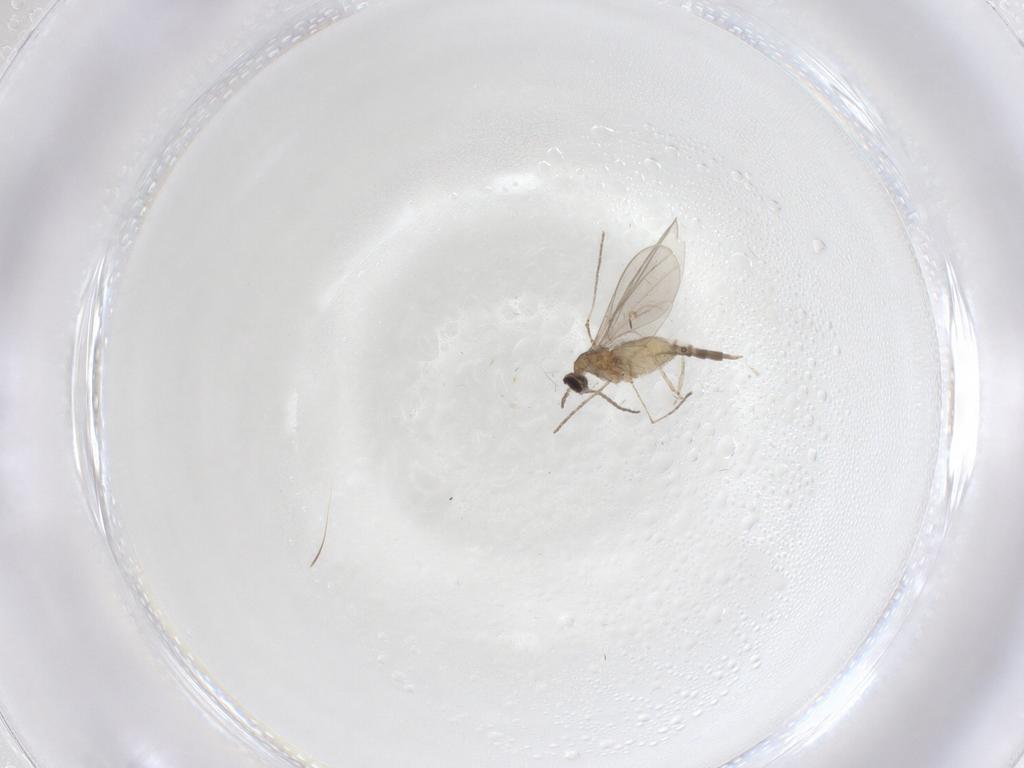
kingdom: Animalia
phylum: Arthropoda
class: Insecta
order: Diptera
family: Cecidomyiidae
